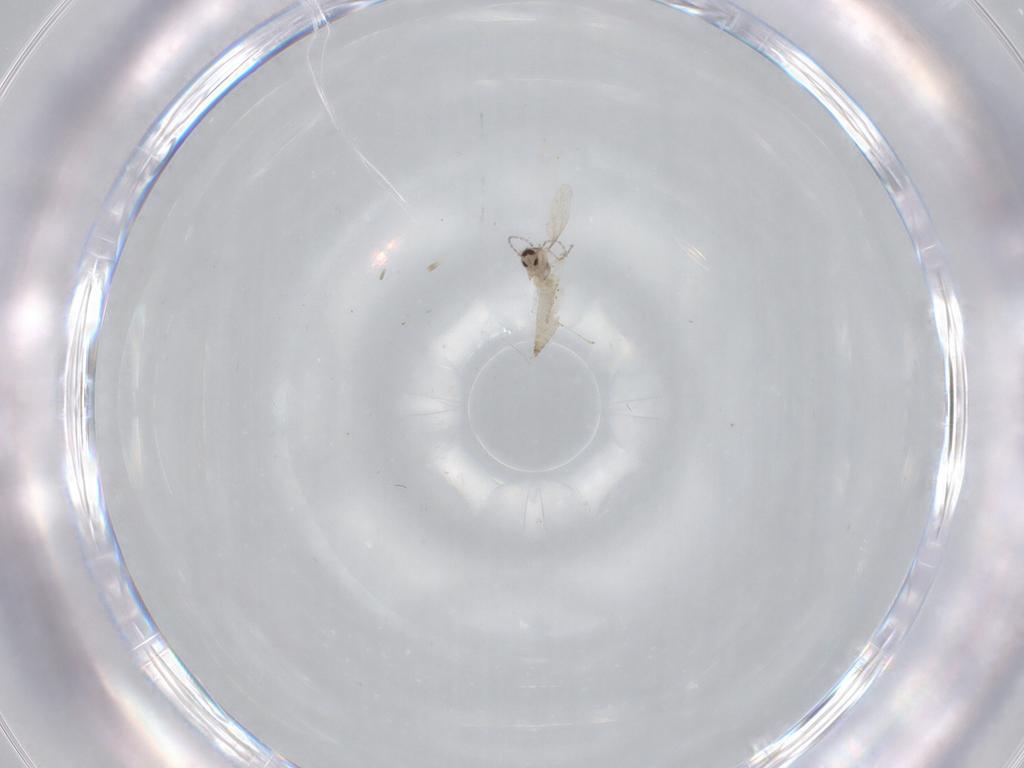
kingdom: Animalia
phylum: Arthropoda
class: Insecta
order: Diptera
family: Cecidomyiidae
